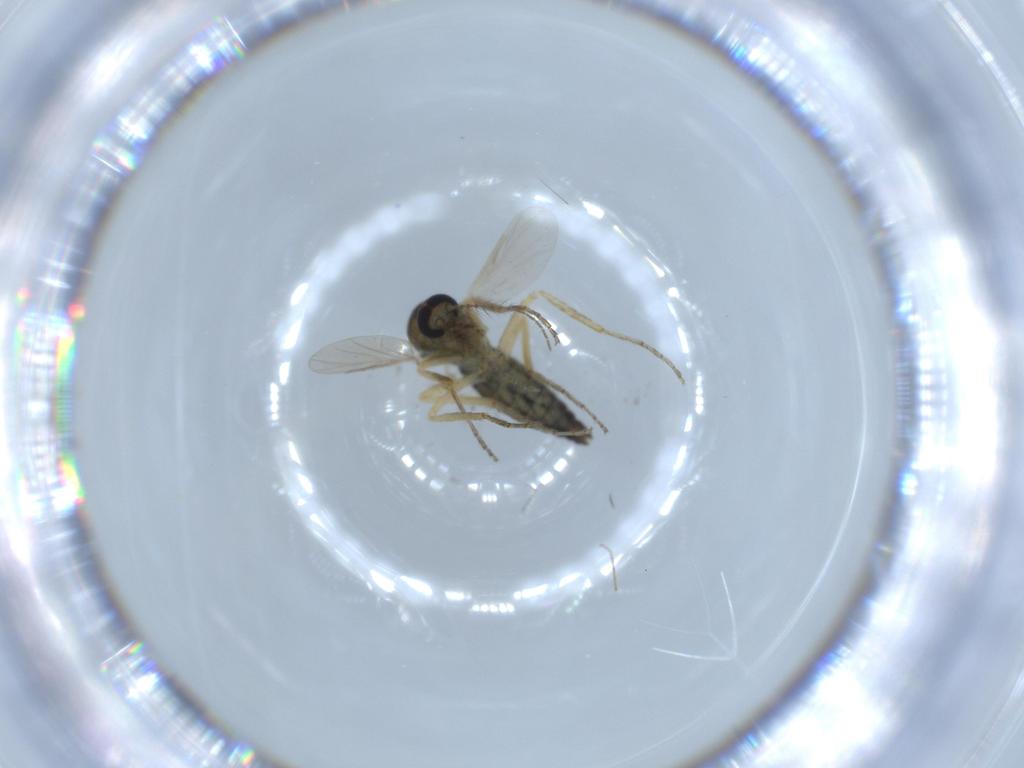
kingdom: Animalia
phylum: Arthropoda
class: Insecta
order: Diptera
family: Ceratopogonidae
